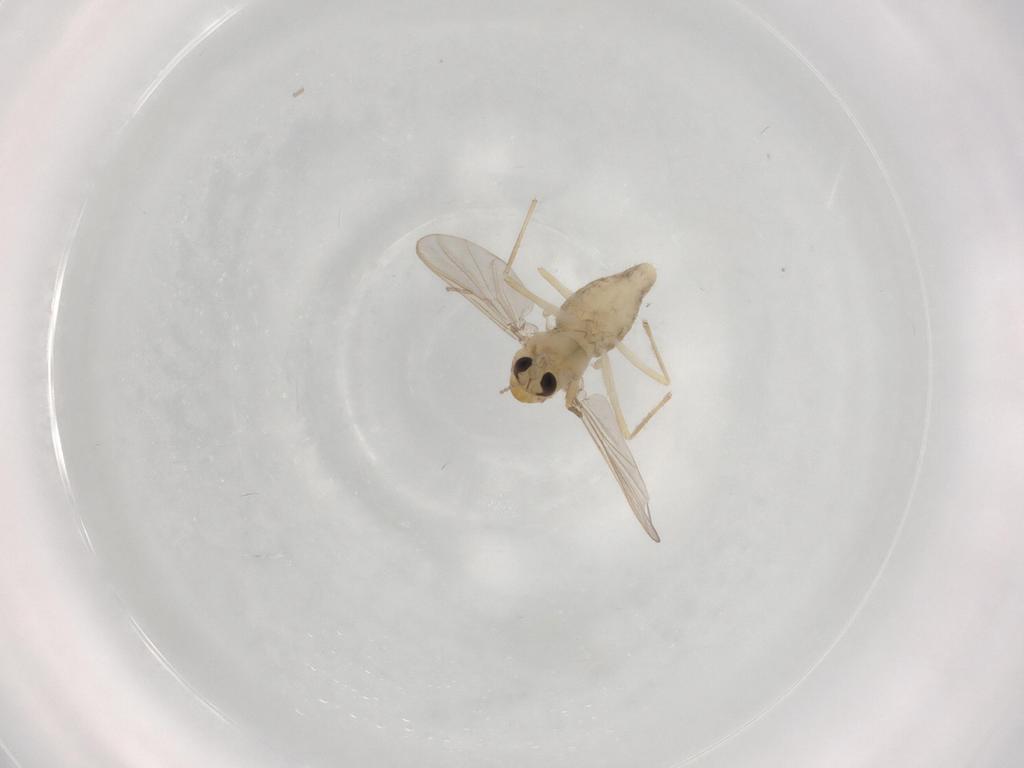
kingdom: Animalia
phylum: Arthropoda
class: Insecta
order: Diptera
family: Chironomidae
